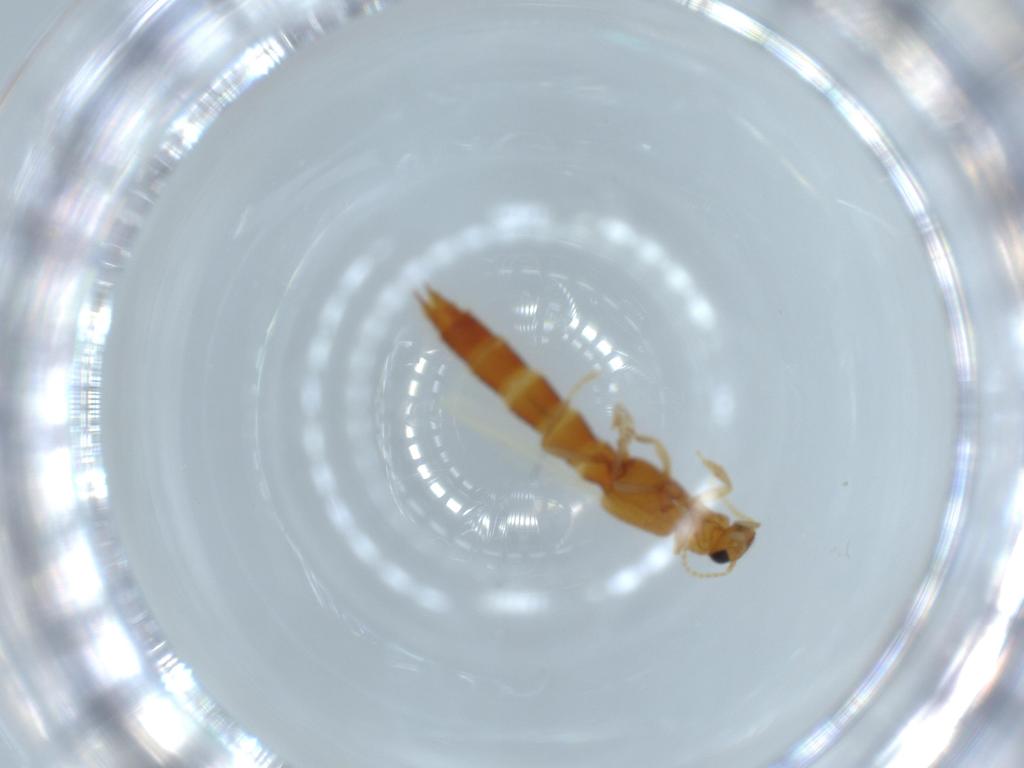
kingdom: Animalia
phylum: Arthropoda
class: Insecta
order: Coleoptera
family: Staphylinidae
